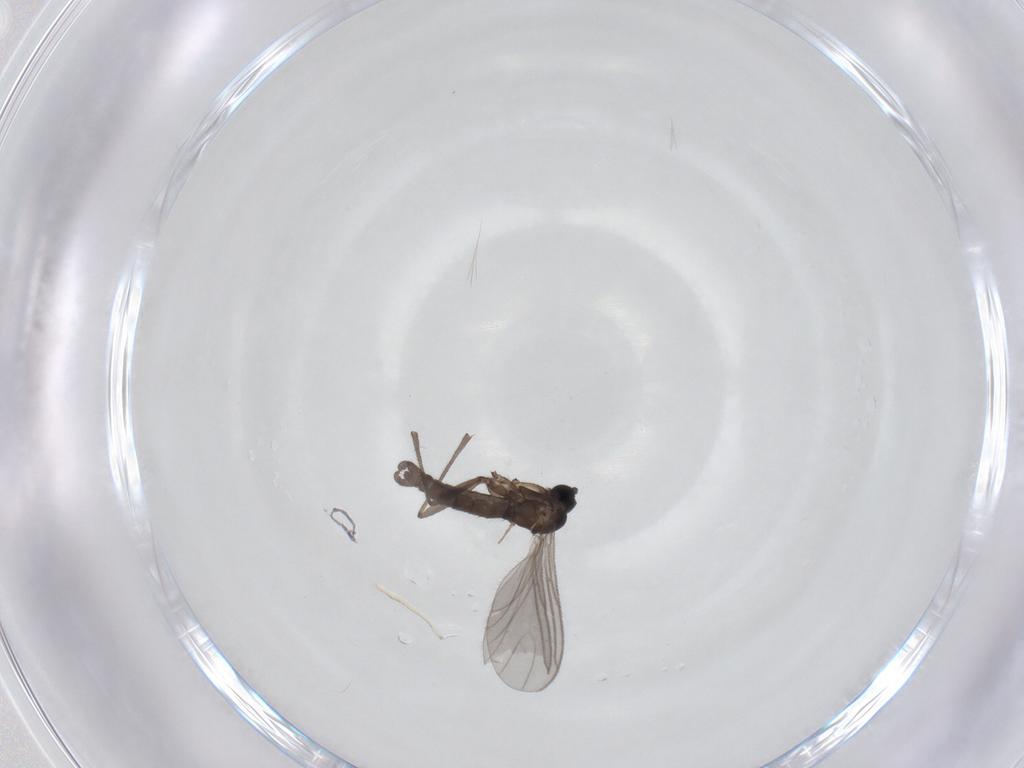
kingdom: Animalia
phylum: Arthropoda
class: Insecta
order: Diptera
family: Sciaridae
